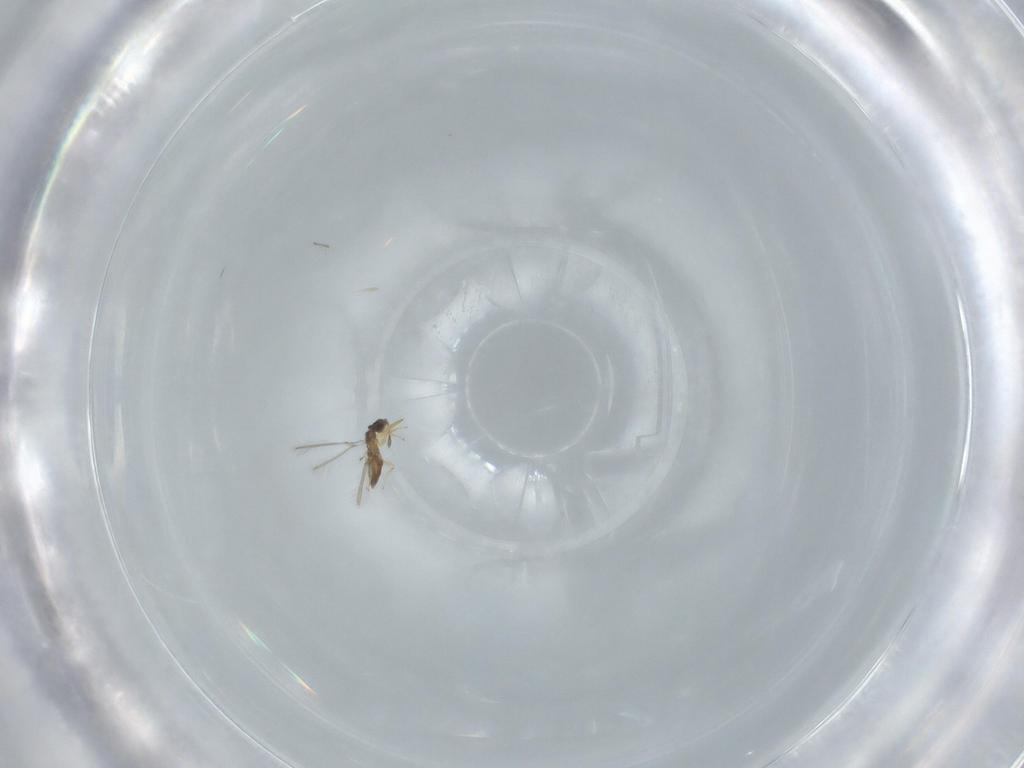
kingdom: Animalia
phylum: Arthropoda
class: Insecta
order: Hymenoptera
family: Mymaridae
